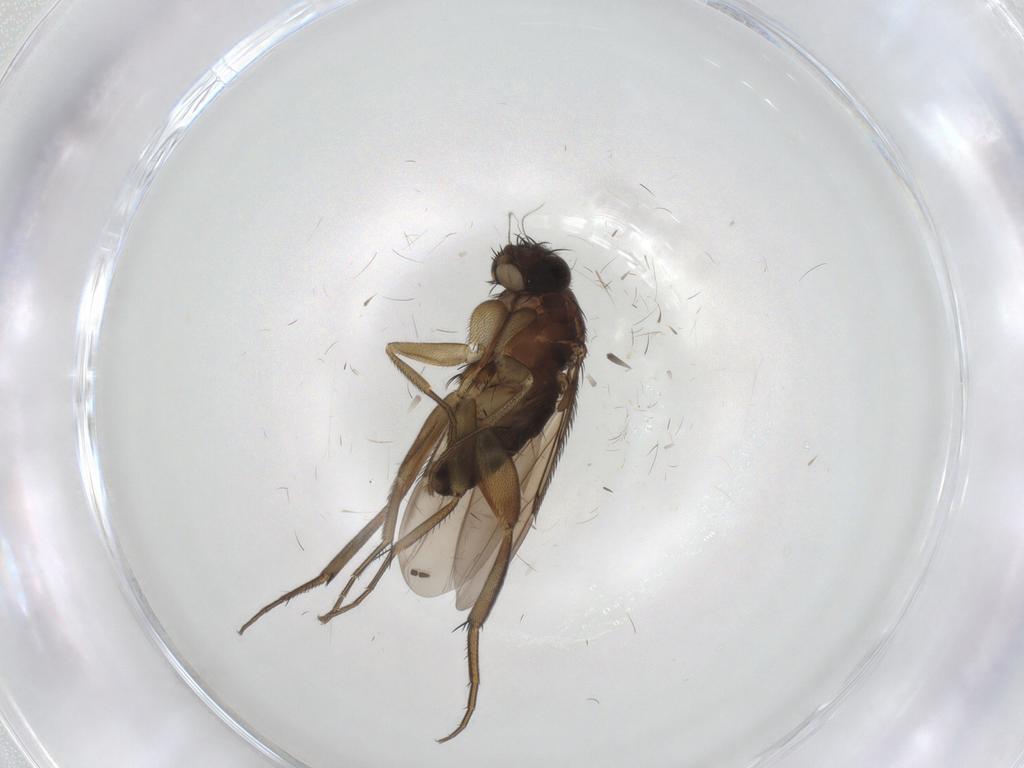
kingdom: Animalia
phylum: Arthropoda
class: Insecta
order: Diptera
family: Phoridae
